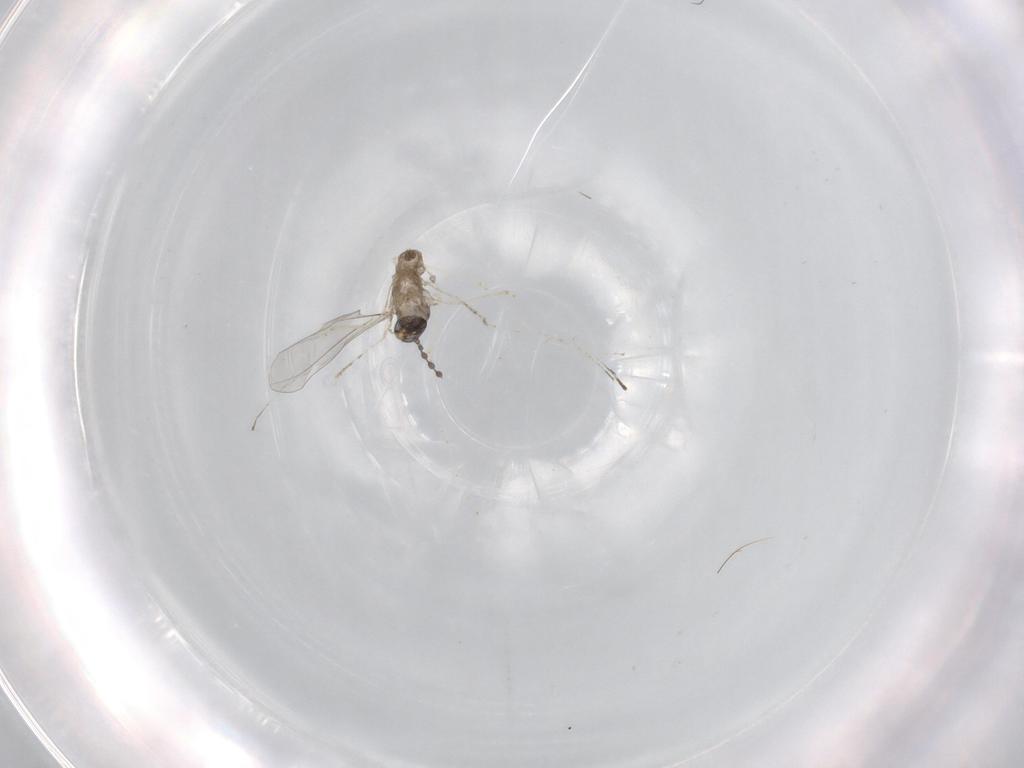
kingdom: Animalia
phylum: Arthropoda
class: Insecta
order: Diptera
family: Cecidomyiidae
